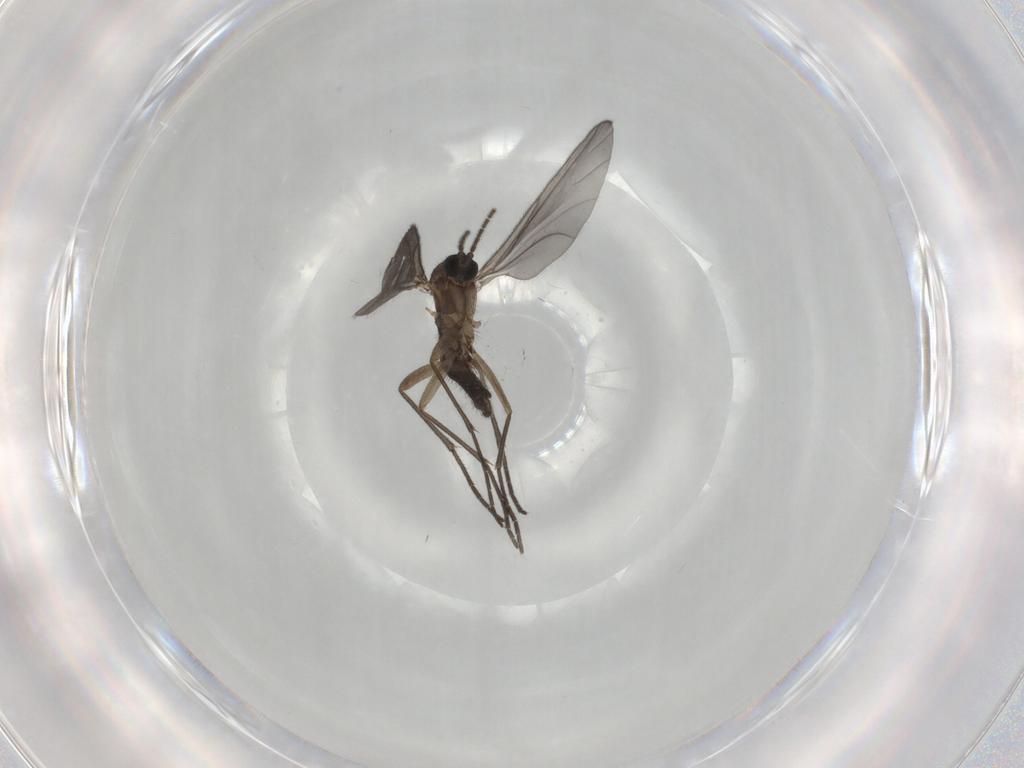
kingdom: Animalia
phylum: Arthropoda
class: Insecta
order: Diptera
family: Sciaridae
